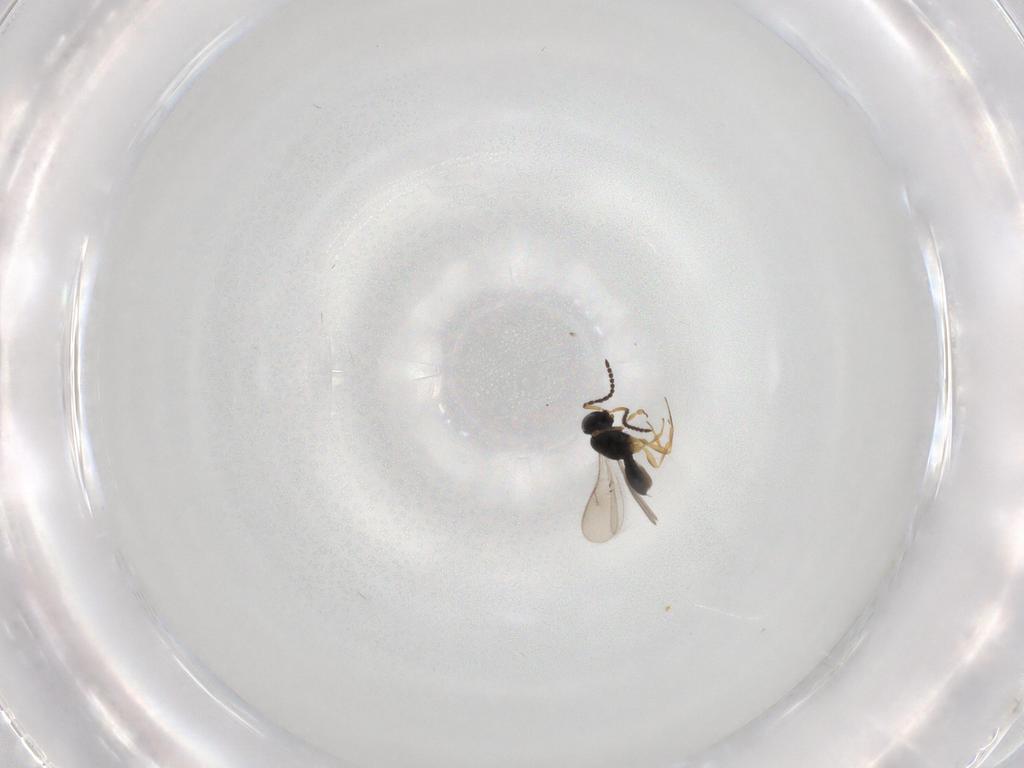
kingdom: Animalia
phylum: Arthropoda
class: Insecta
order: Hymenoptera
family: Scelionidae
